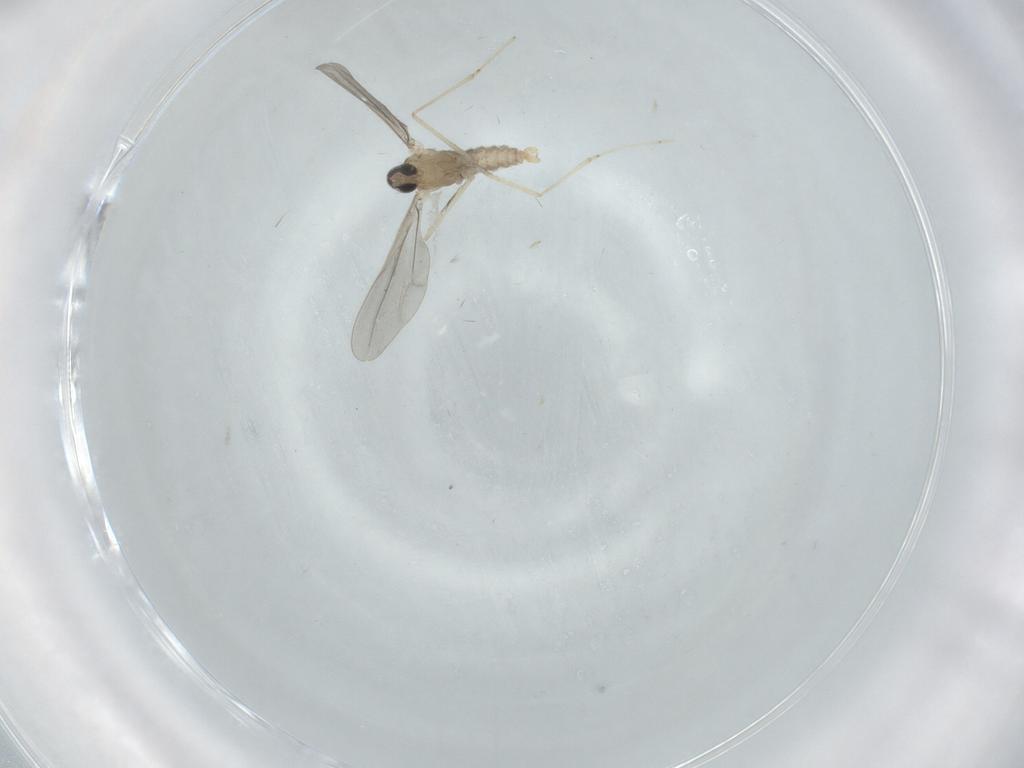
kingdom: Animalia
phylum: Arthropoda
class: Insecta
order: Diptera
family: Cecidomyiidae
